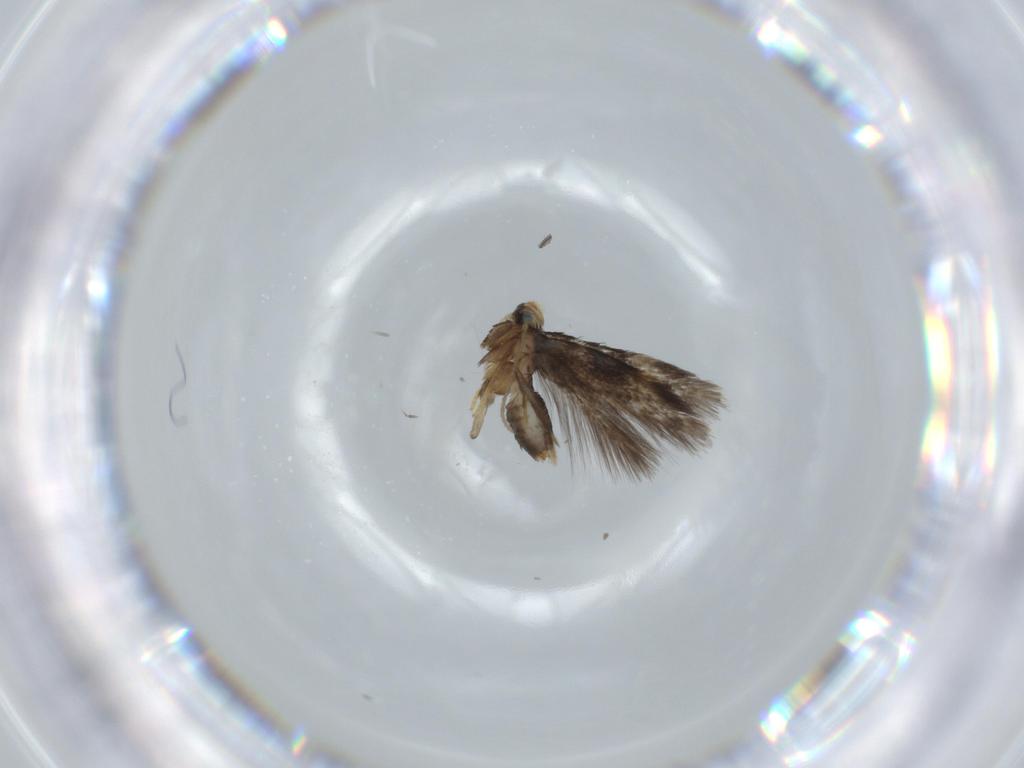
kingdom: Animalia
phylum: Arthropoda
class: Insecta
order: Lepidoptera
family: Nepticulidae
